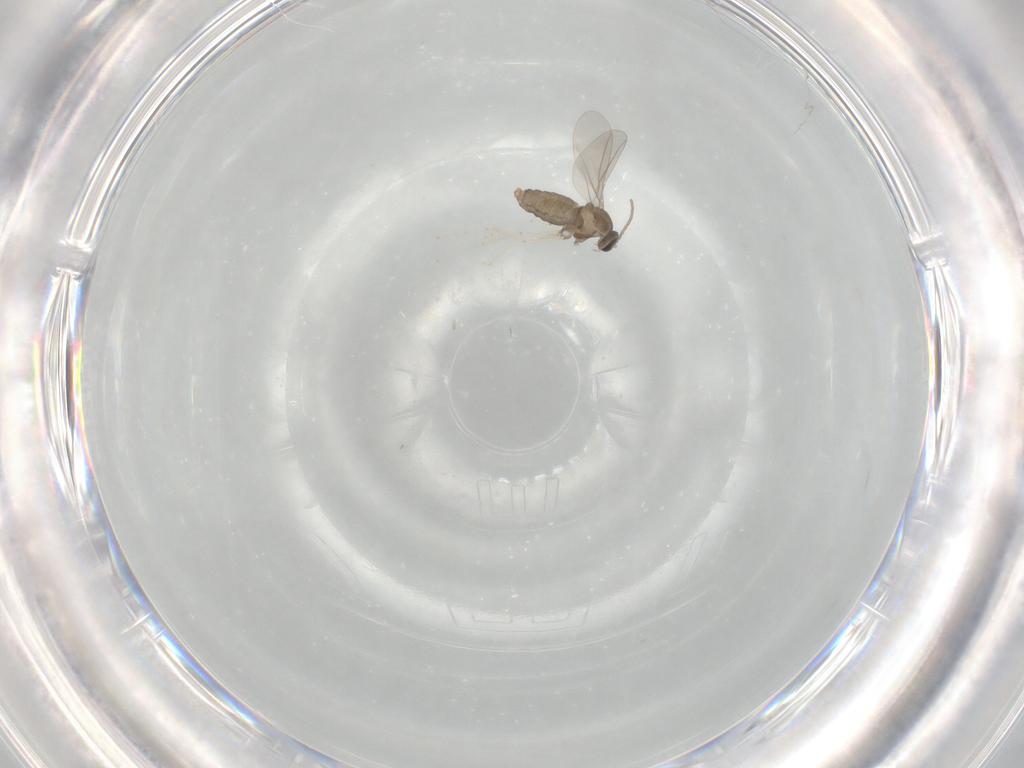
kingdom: Animalia
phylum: Arthropoda
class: Insecta
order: Diptera
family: Cecidomyiidae
